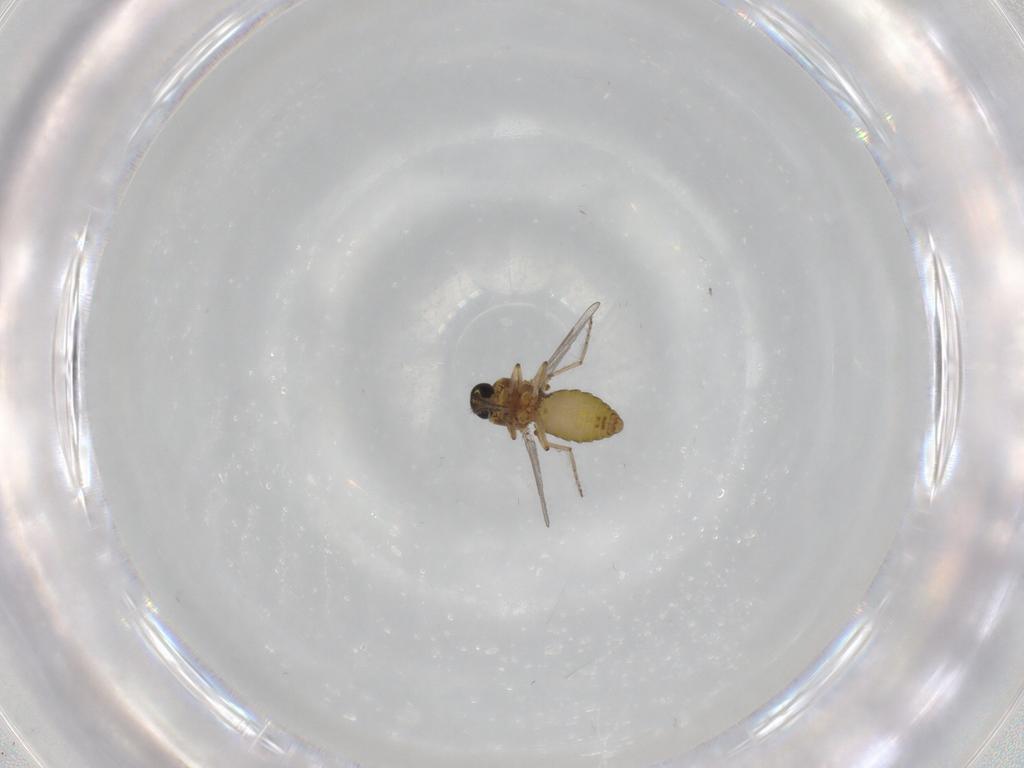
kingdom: Animalia
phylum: Arthropoda
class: Insecta
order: Diptera
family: Ceratopogonidae
